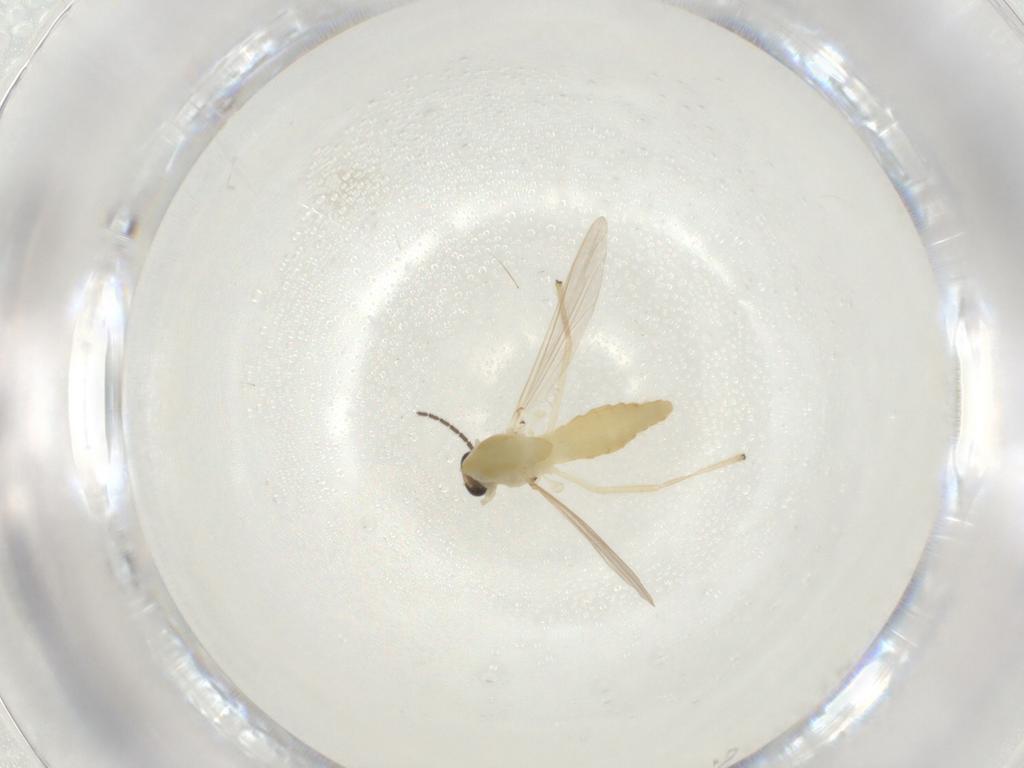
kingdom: Animalia
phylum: Arthropoda
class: Insecta
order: Diptera
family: Chironomidae
